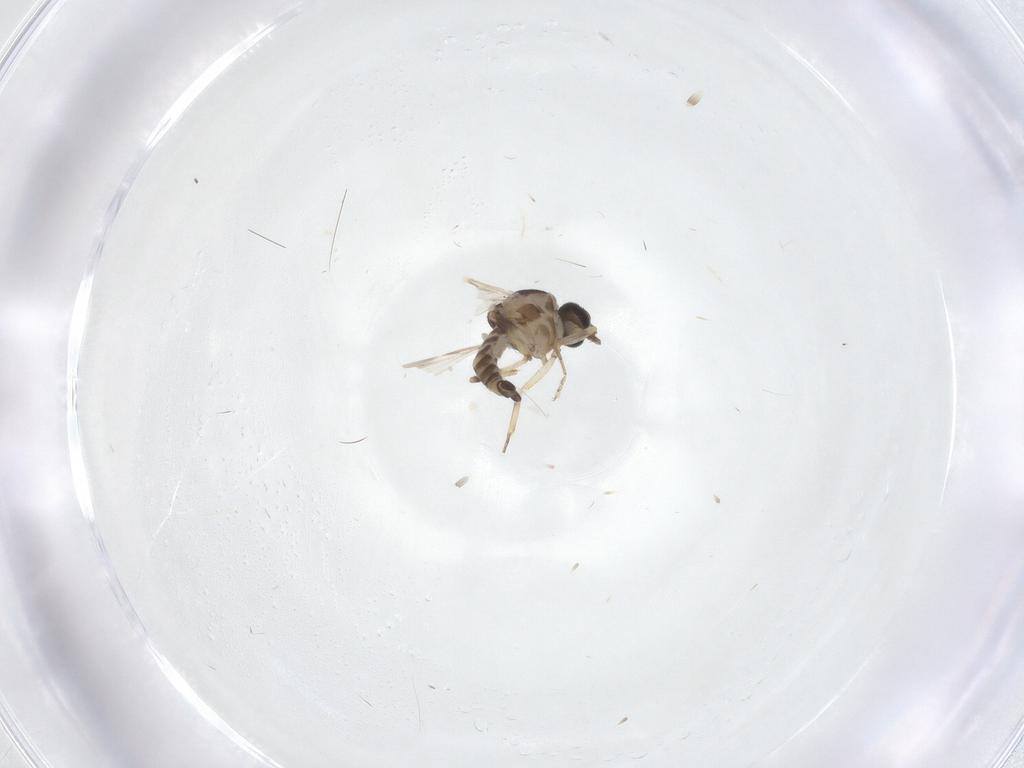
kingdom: Animalia
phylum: Arthropoda
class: Insecta
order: Diptera
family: Ceratopogonidae
